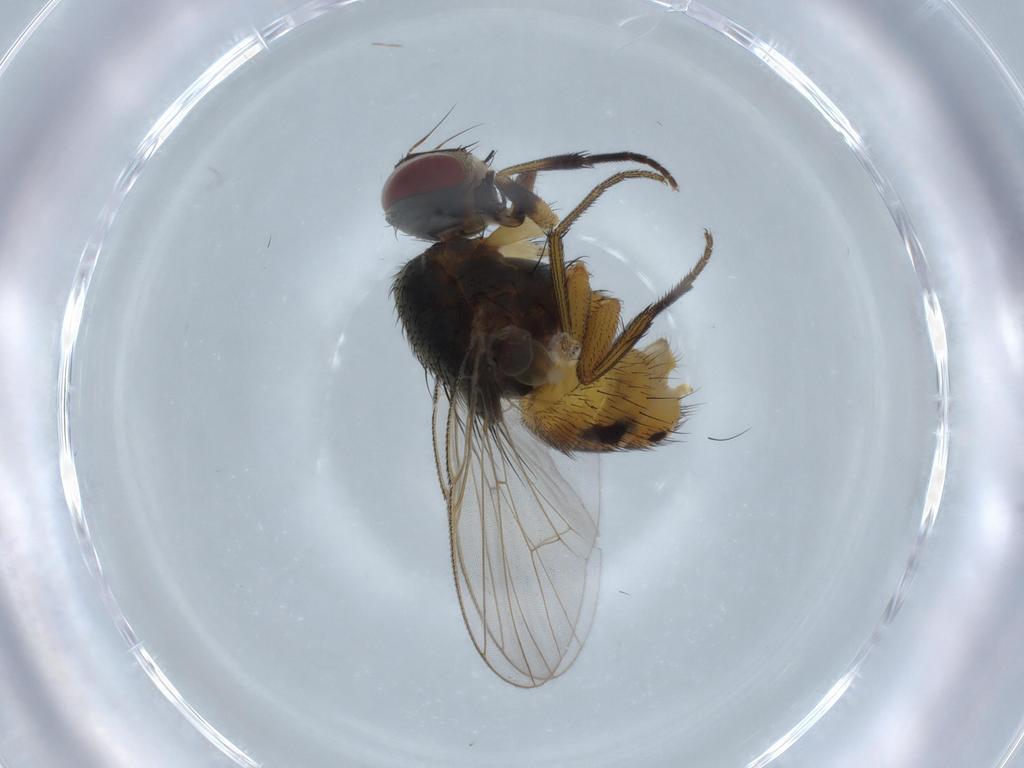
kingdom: Animalia
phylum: Arthropoda
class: Insecta
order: Diptera
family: Muscidae
